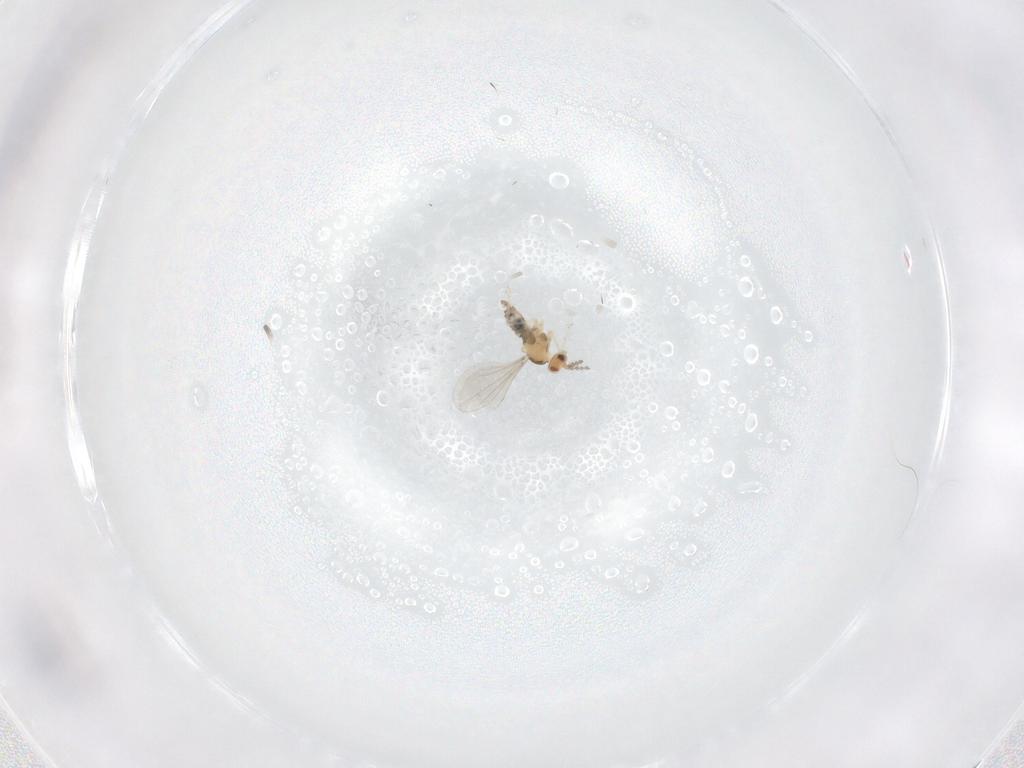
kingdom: Animalia
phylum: Arthropoda
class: Insecta
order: Diptera
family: Cecidomyiidae
